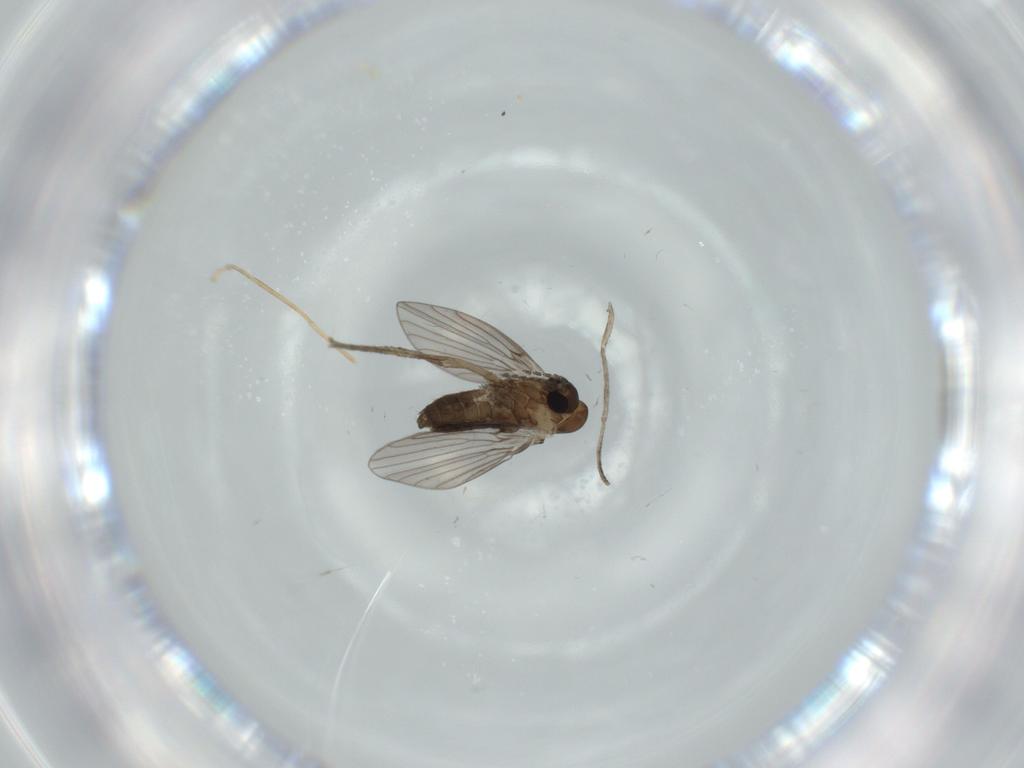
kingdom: Animalia
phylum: Arthropoda
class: Insecta
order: Diptera
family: Psychodidae
